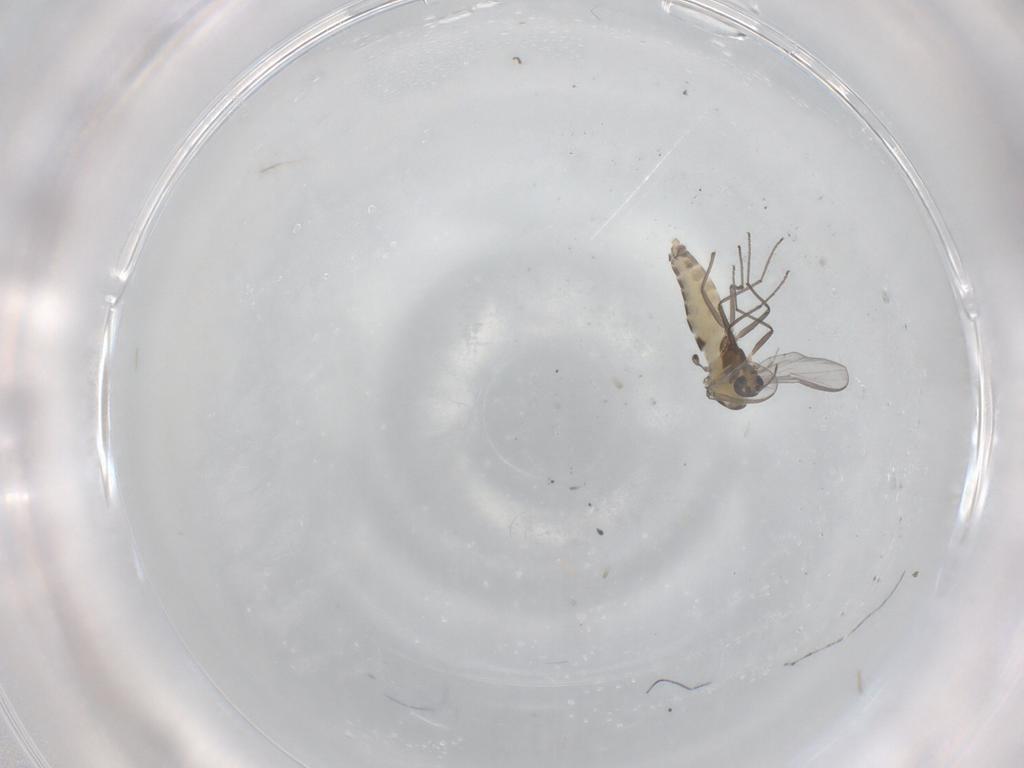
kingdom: Animalia
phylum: Arthropoda
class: Insecta
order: Diptera
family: Chironomidae
